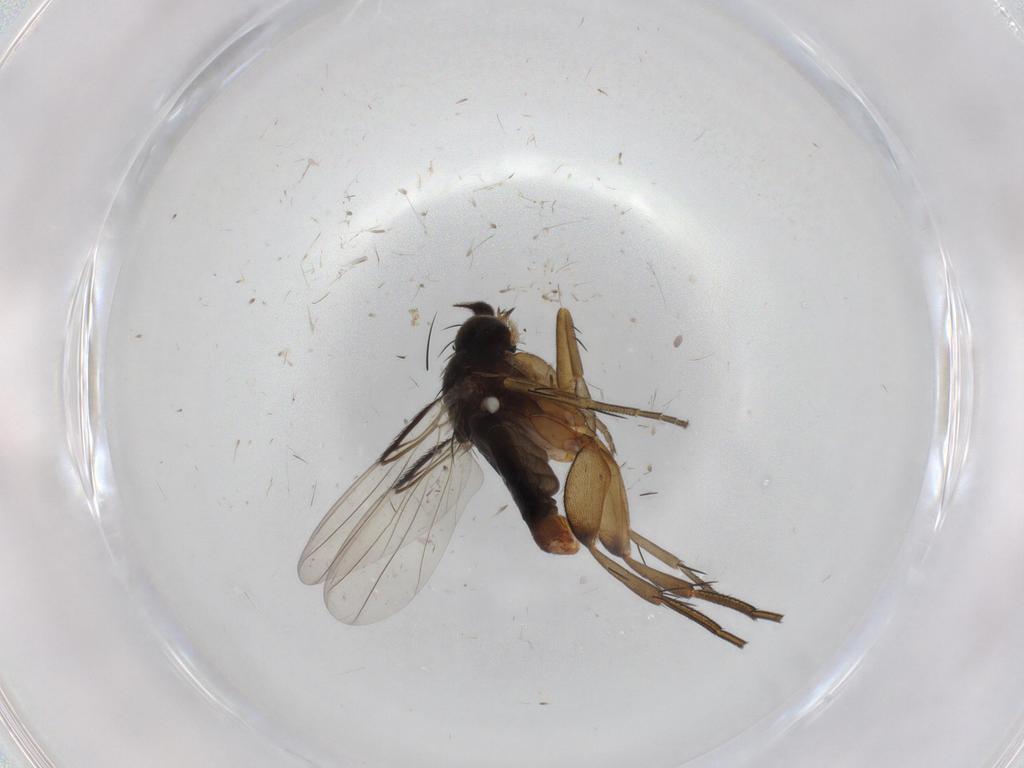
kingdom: Animalia
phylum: Arthropoda
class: Insecta
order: Diptera
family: Phoridae
